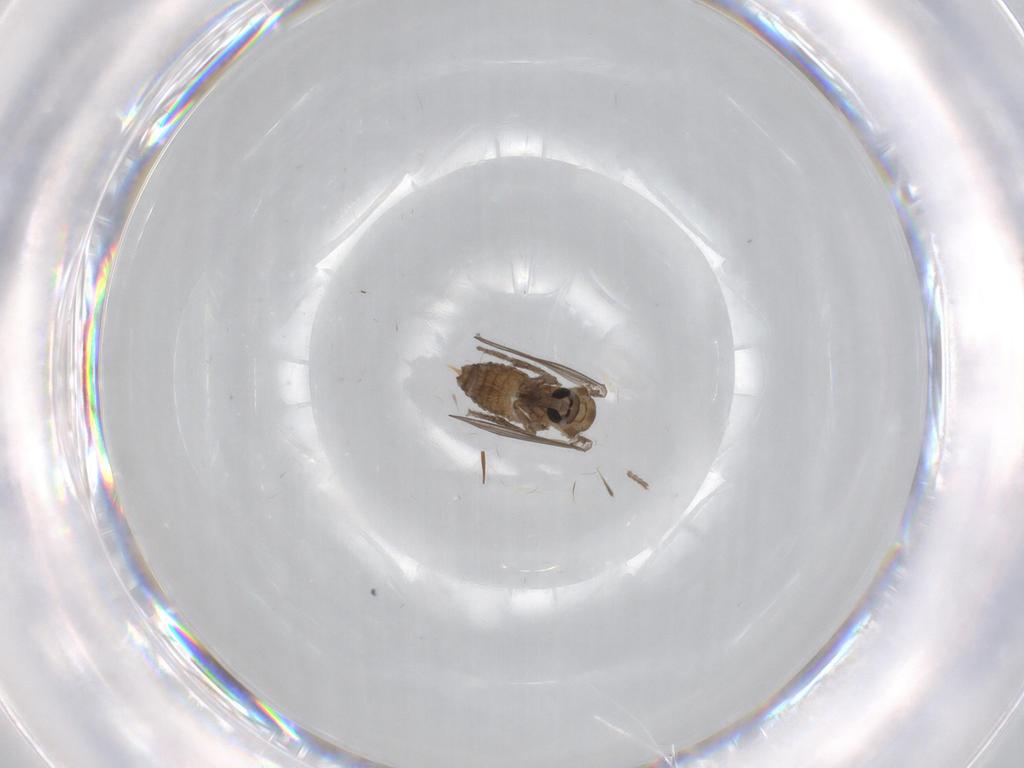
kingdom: Animalia
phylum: Arthropoda
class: Insecta
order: Diptera
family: Psychodidae
